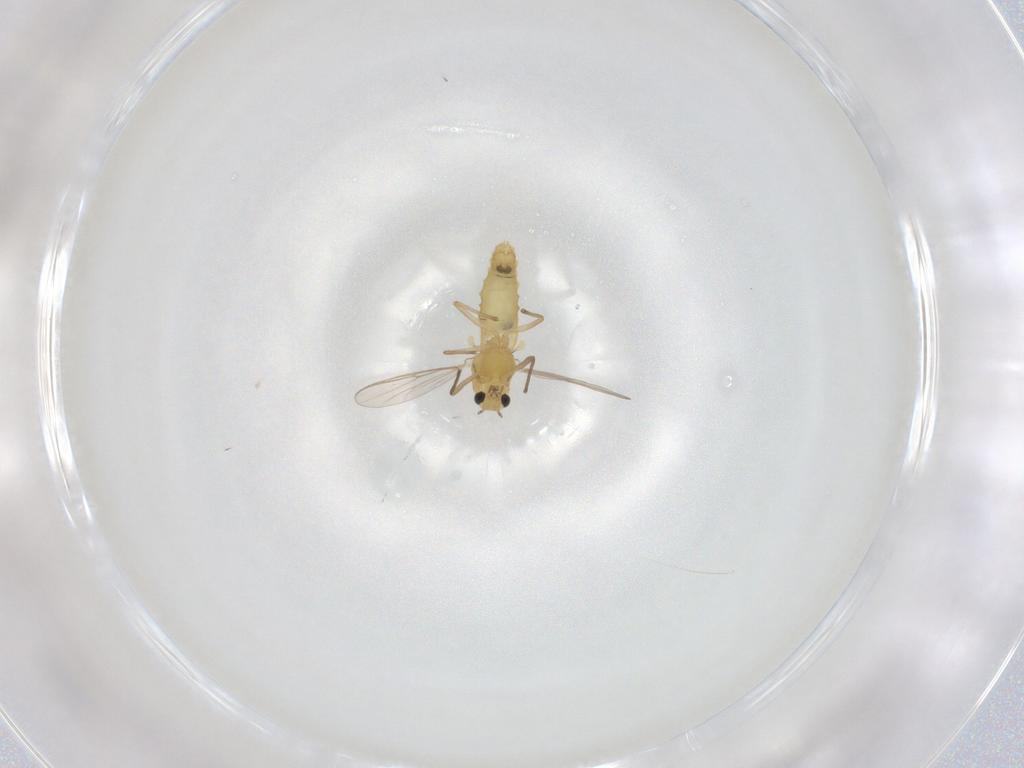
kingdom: Animalia
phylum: Arthropoda
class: Insecta
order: Diptera
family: Chironomidae
